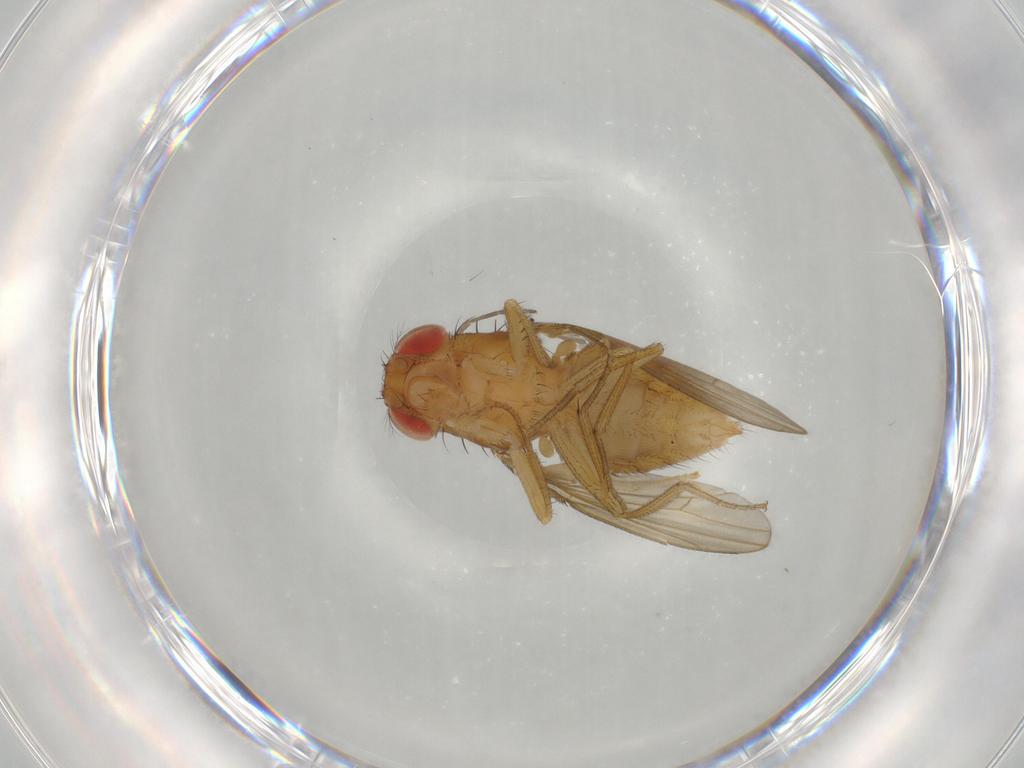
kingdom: Animalia
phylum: Arthropoda
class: Insecta
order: Diptera
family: Drosophilidae
